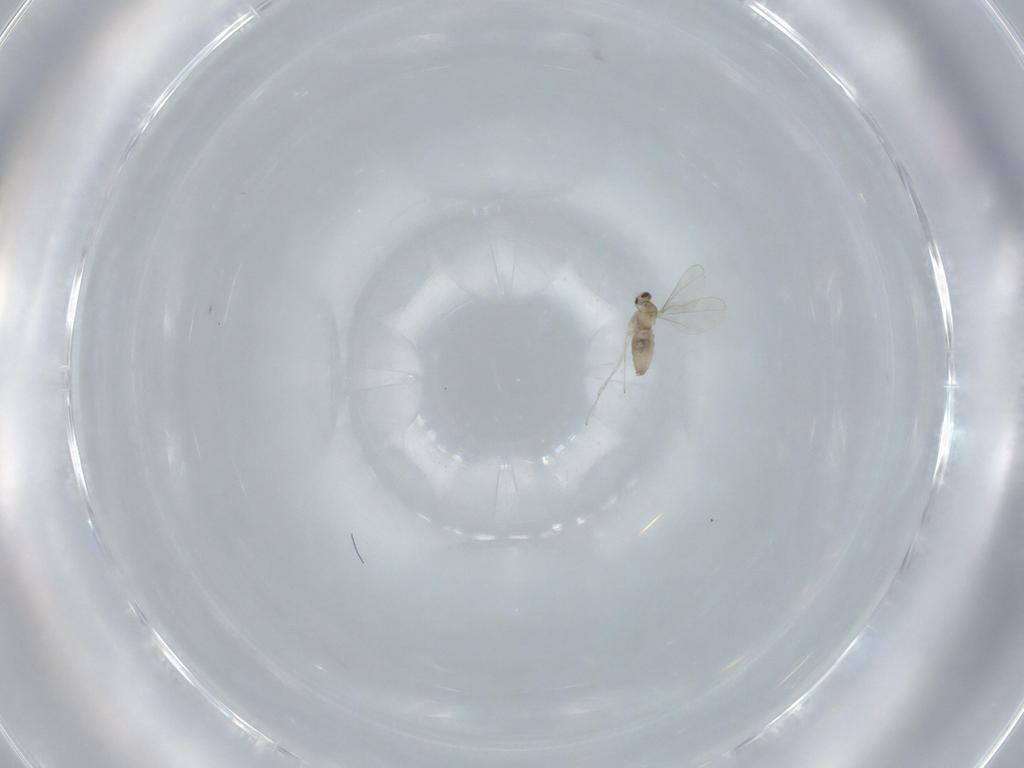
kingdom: Animalia
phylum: Arthropoda
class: Insecta
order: Diptera
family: Cecidomyiidae
